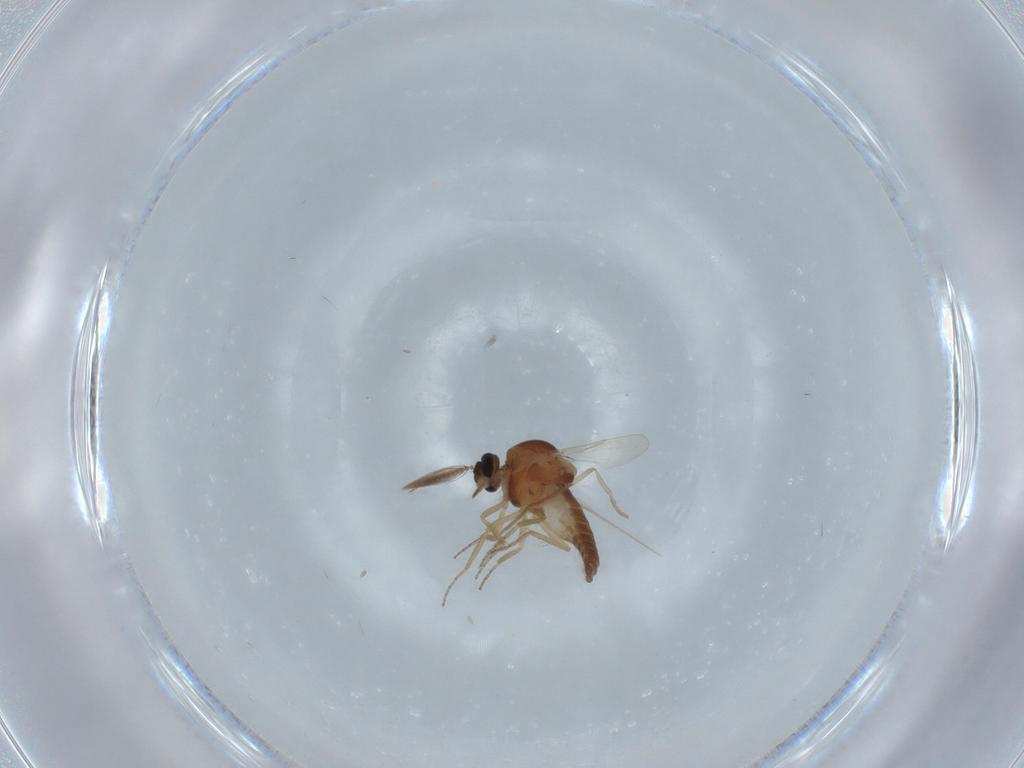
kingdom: Animalia
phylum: Arthropoda
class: Insecta
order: Diptera
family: Ceratopogonidae
